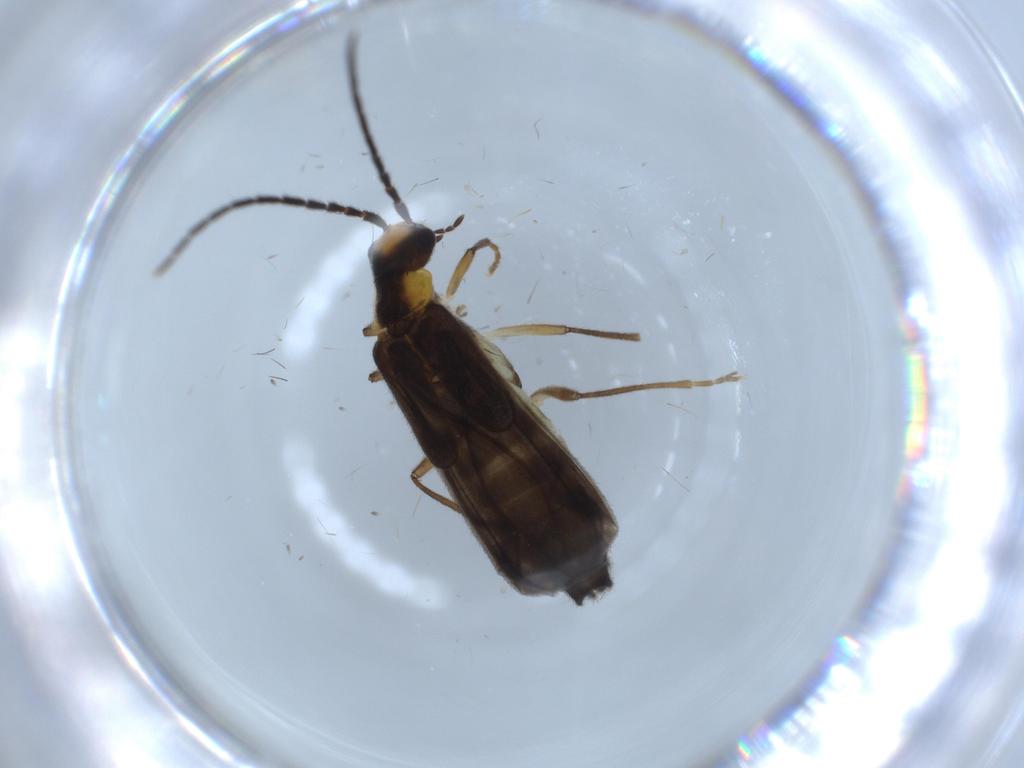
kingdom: Animalia
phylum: Arthropoda
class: Insecta
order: Coleoptera
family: Cantharidae
